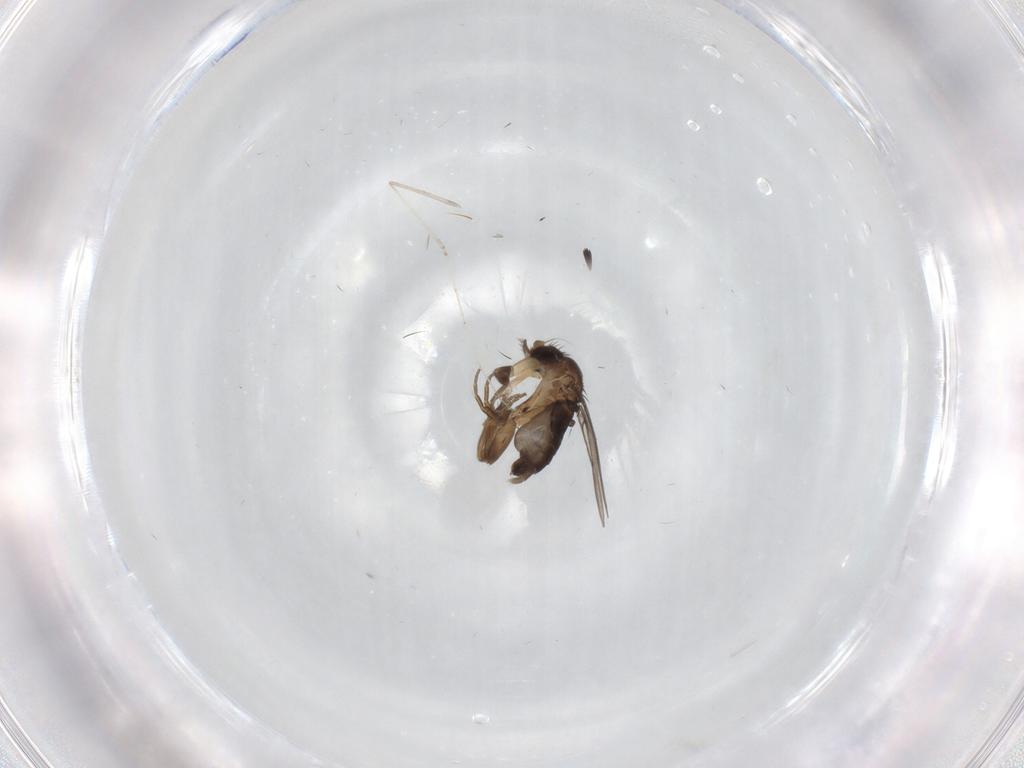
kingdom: Animalia
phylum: Arthropoda
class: Insecta
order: Diptera
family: Phoridae
